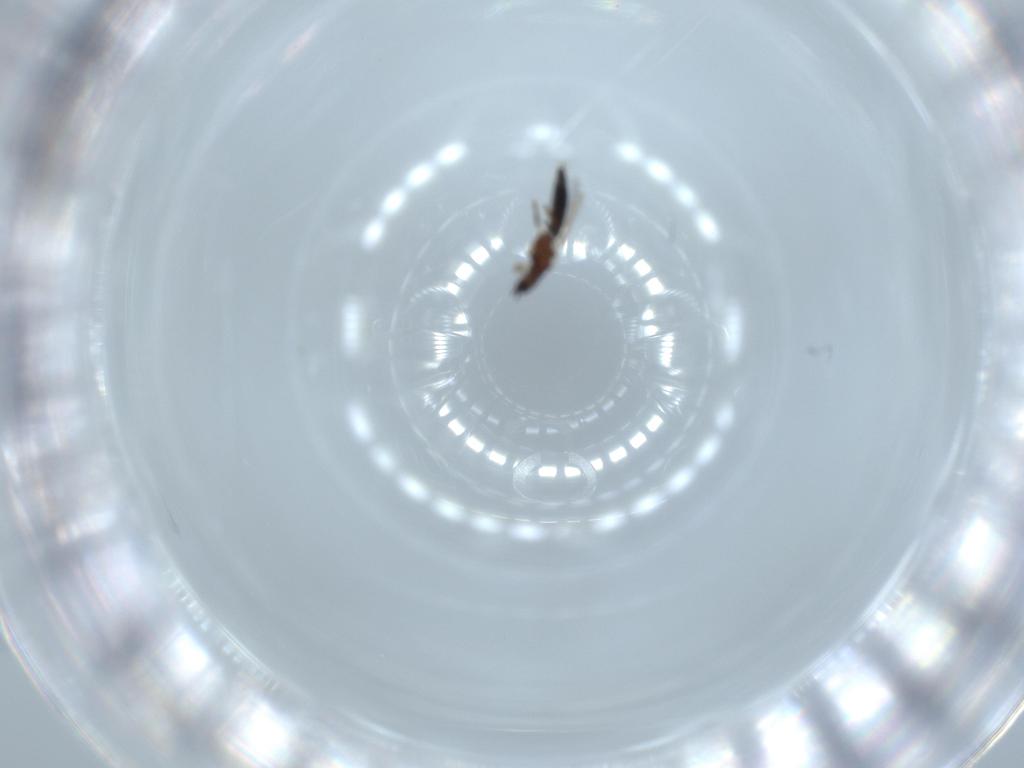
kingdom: Animalia
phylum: Arthropoda
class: Insecta
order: Thysanoptera
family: Thripidae
